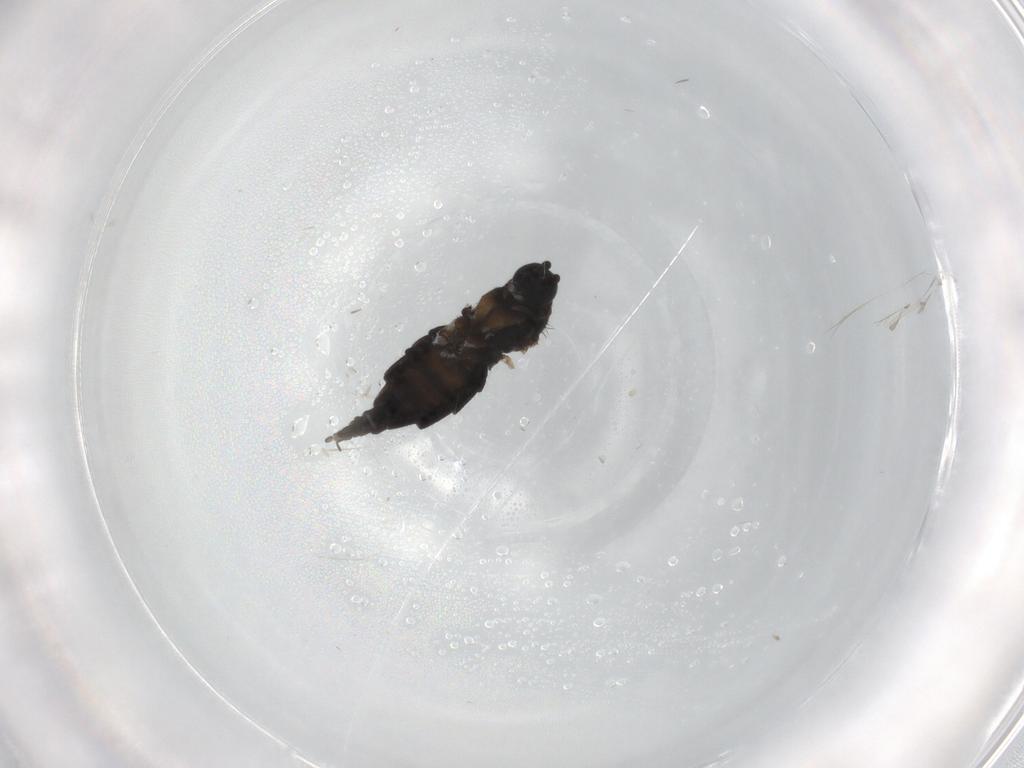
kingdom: Animalia
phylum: Arthropoda
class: Insecta
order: Diptera
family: Sciaridae
